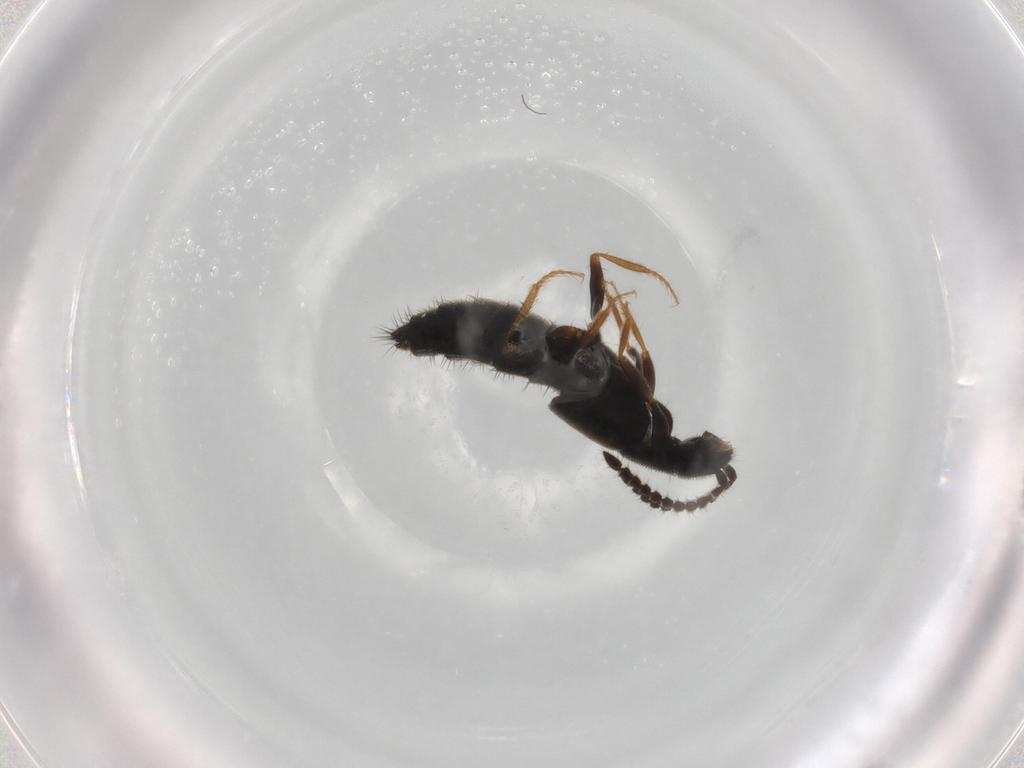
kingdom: Animalia
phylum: Arthropoda
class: Insecta
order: Coleoptera
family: Staphylinidae
